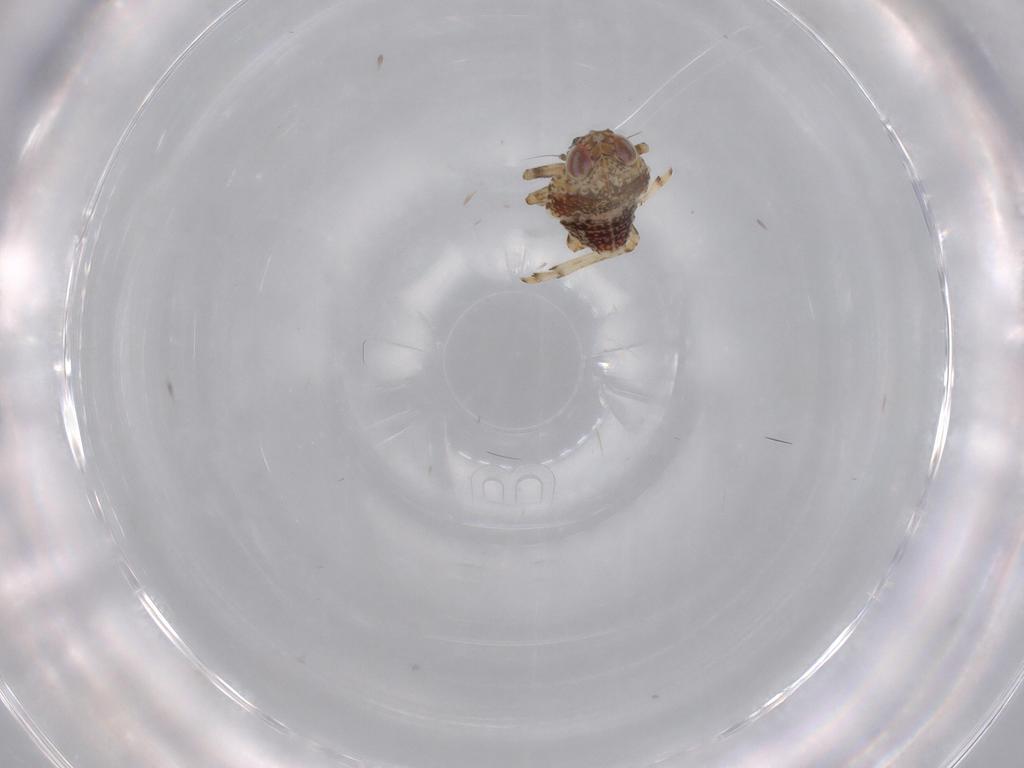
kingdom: Animalia
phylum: Arthropoda
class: Insecta
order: Hemiptera
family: Issidae
